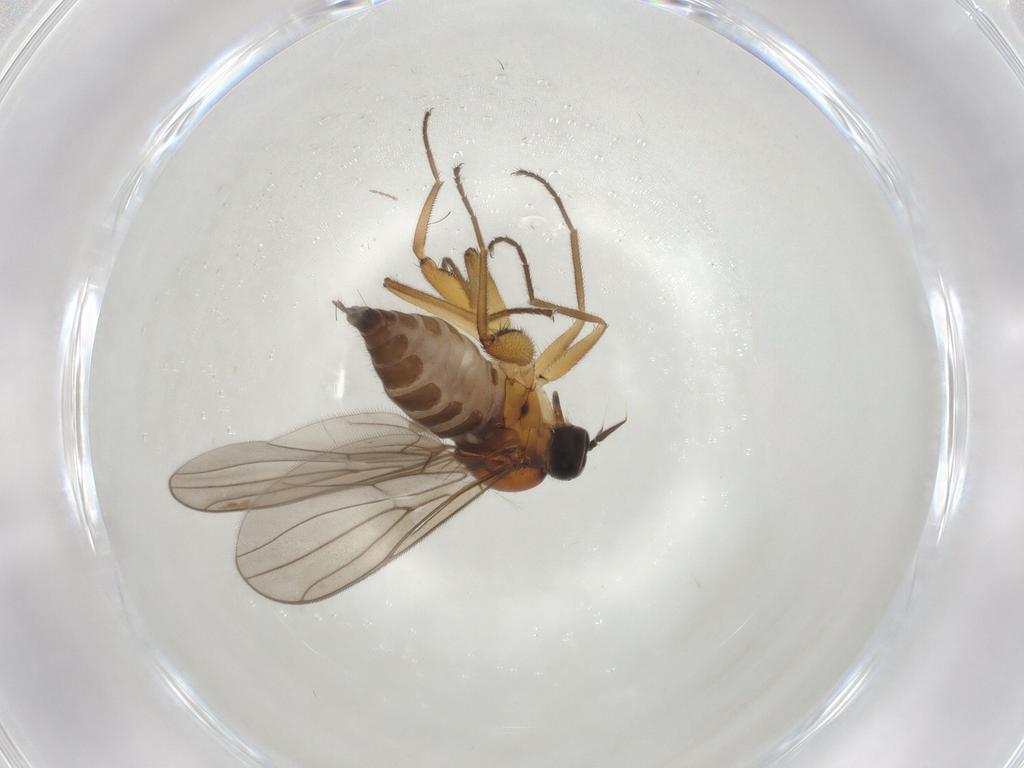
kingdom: Animalia
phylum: Arthropoda
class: Insecta
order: Diptera
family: Hybotidae
